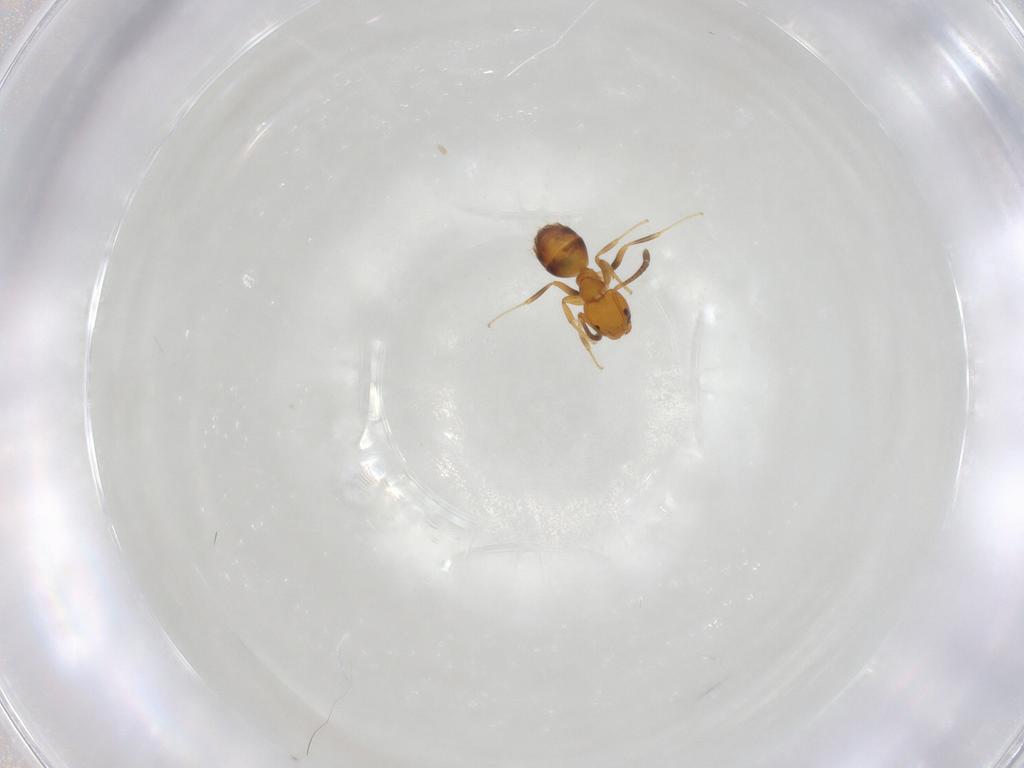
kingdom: Animalia
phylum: Arthropoda
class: Insecta
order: Hymenoptera
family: Formicidae
